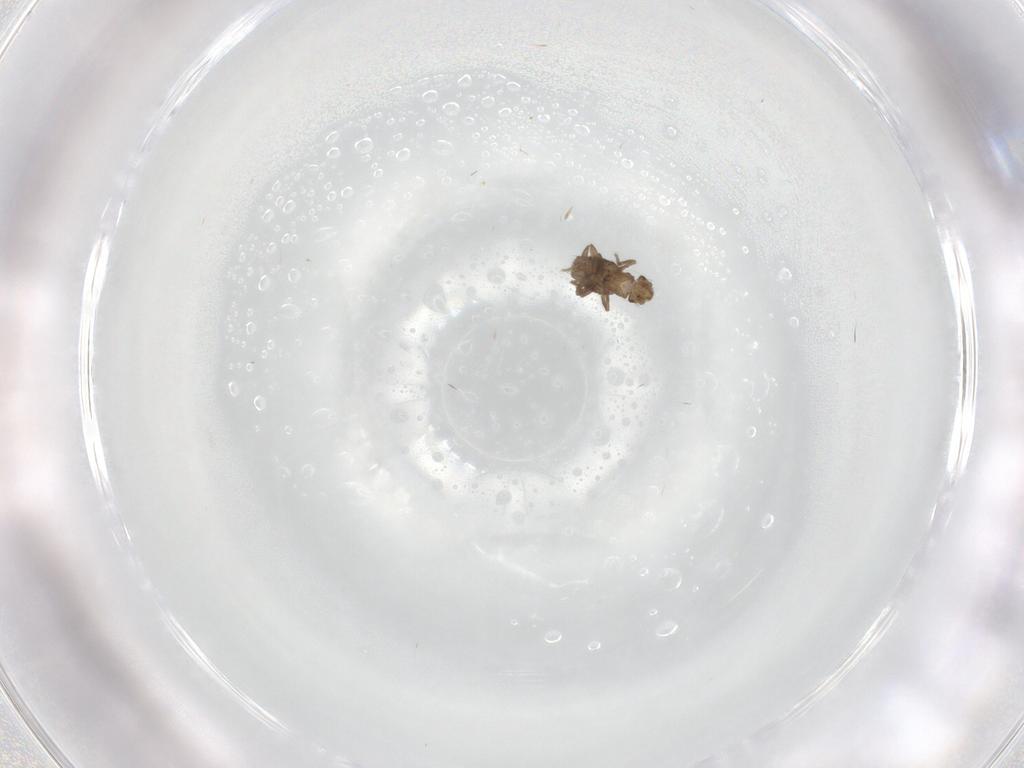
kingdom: Animalia
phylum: Arthropoda
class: Insecta
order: Diptera
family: Phoridae
